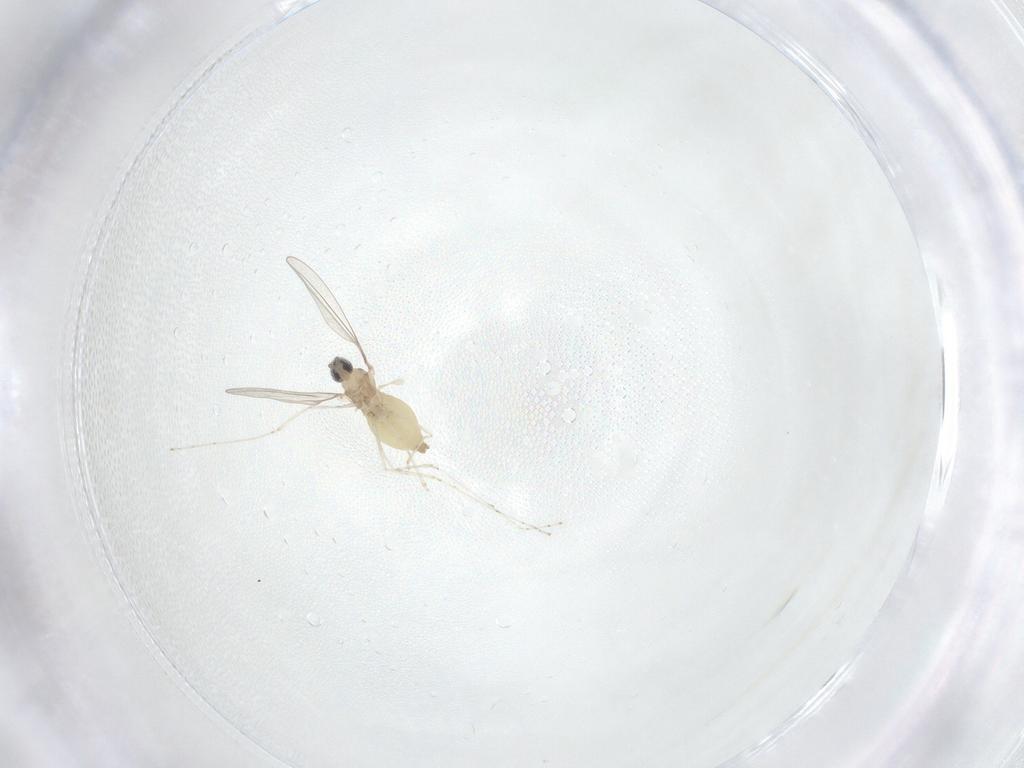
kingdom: Animalia
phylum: Arthropoda
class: Insecta
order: Diptera
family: Cecidomyiidae
